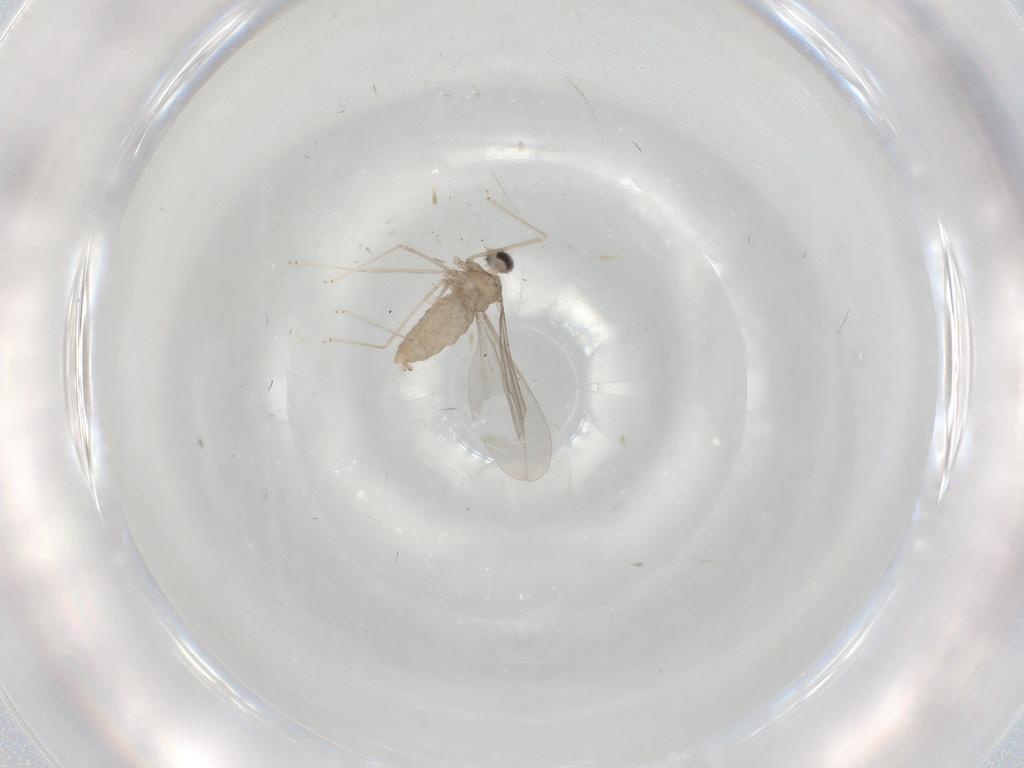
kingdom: Animalia
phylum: Arthropoda
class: Insecta
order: Diptera
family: Cecidomyiidae
